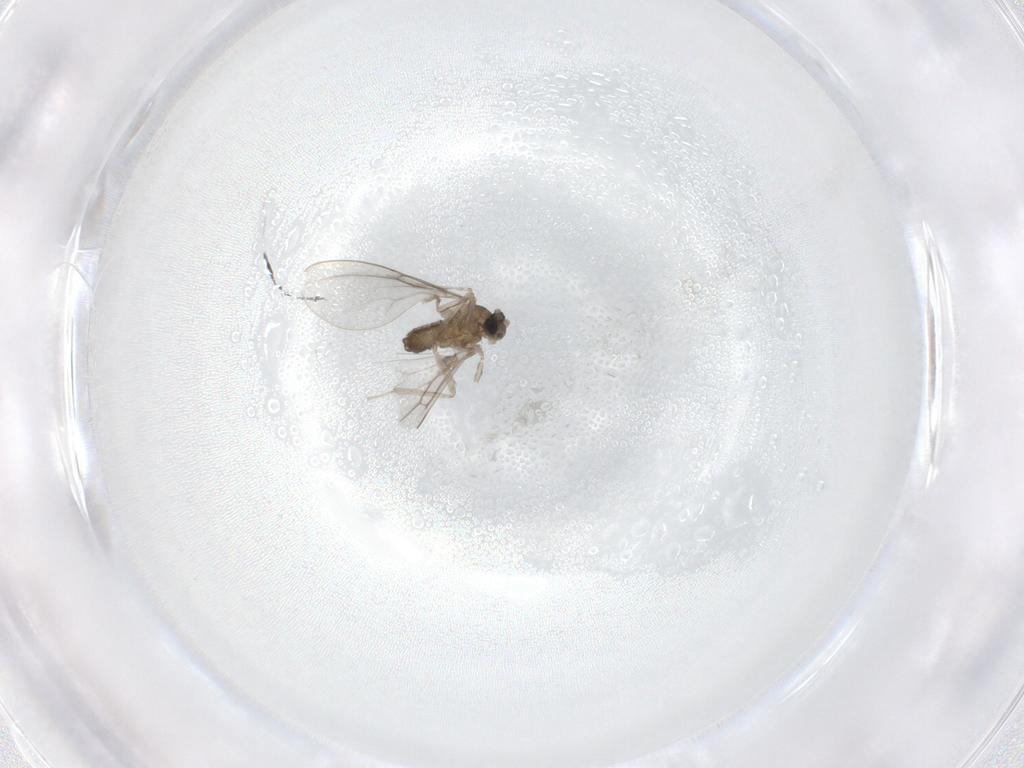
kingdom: Animalia
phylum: Arthropoda
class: Insecta
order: Diptera
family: Cecidomyiidae
